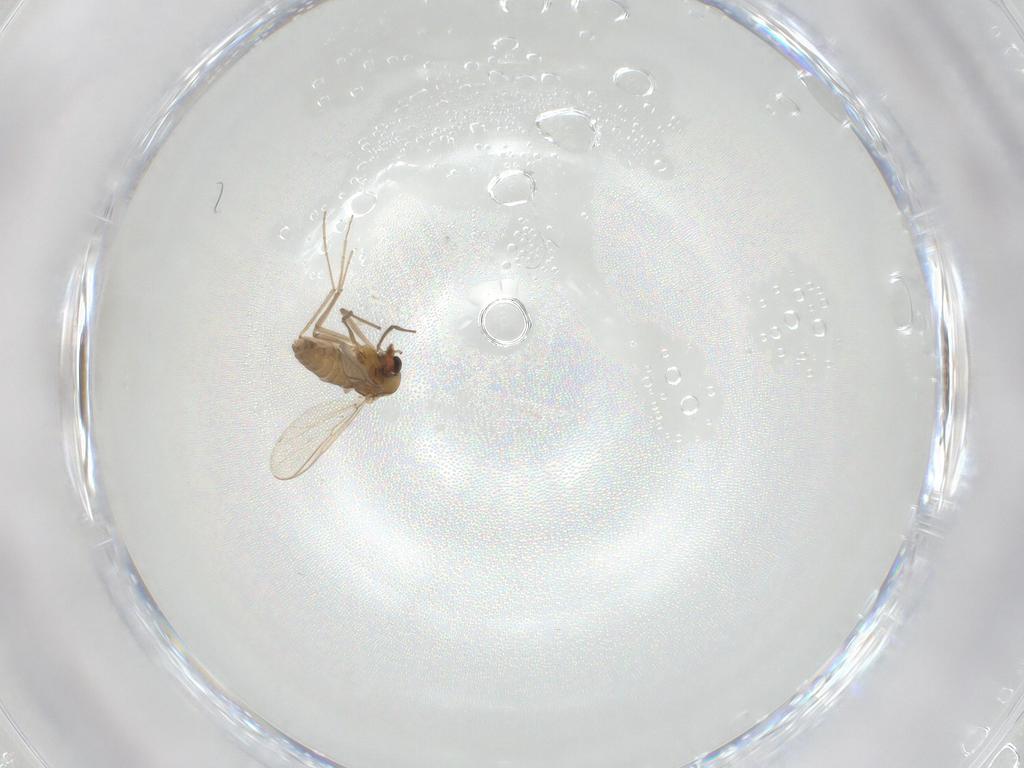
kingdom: Animalia
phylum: Arthropoda
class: Insecta
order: Diptera
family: Chironomidae
